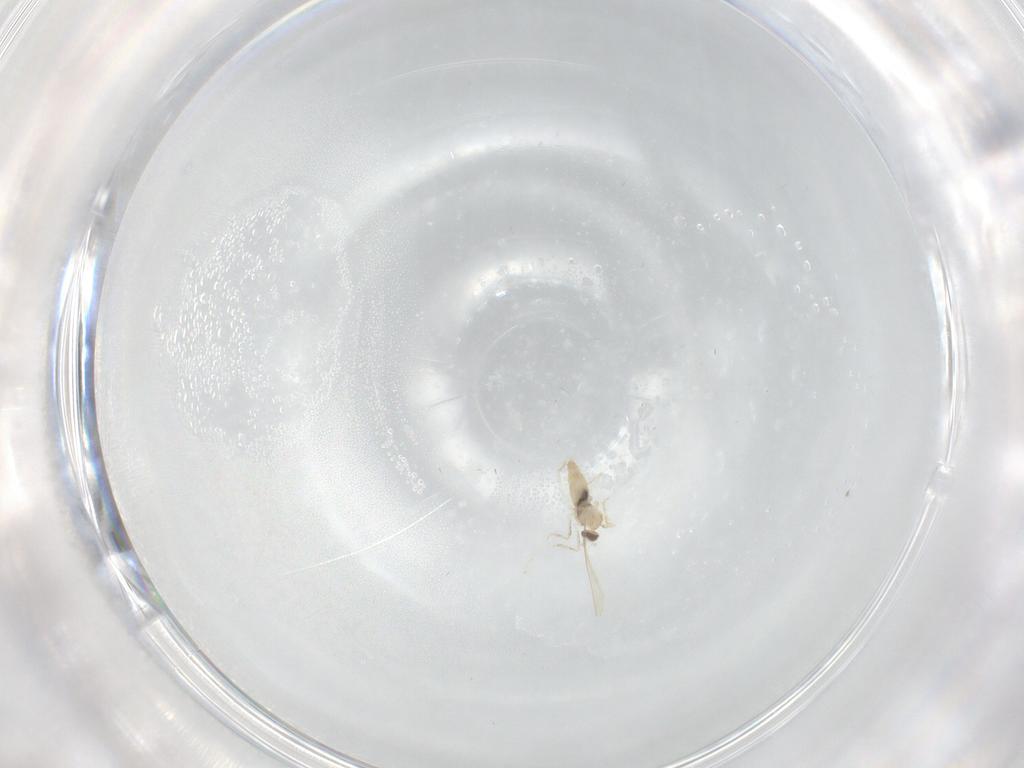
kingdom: Animalia
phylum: Arthropoda
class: Insecta
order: Diptera
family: Cecidomyiidae
